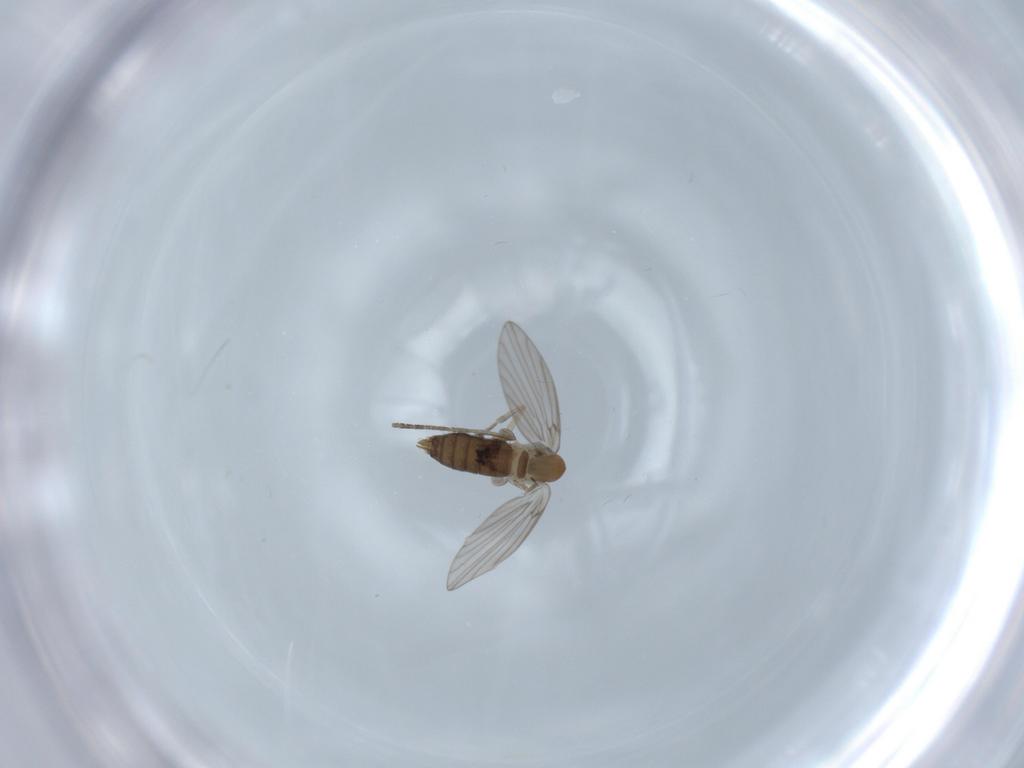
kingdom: Animalia
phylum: Arthropoda
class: Insecta
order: Diptera
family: Psychodidae
